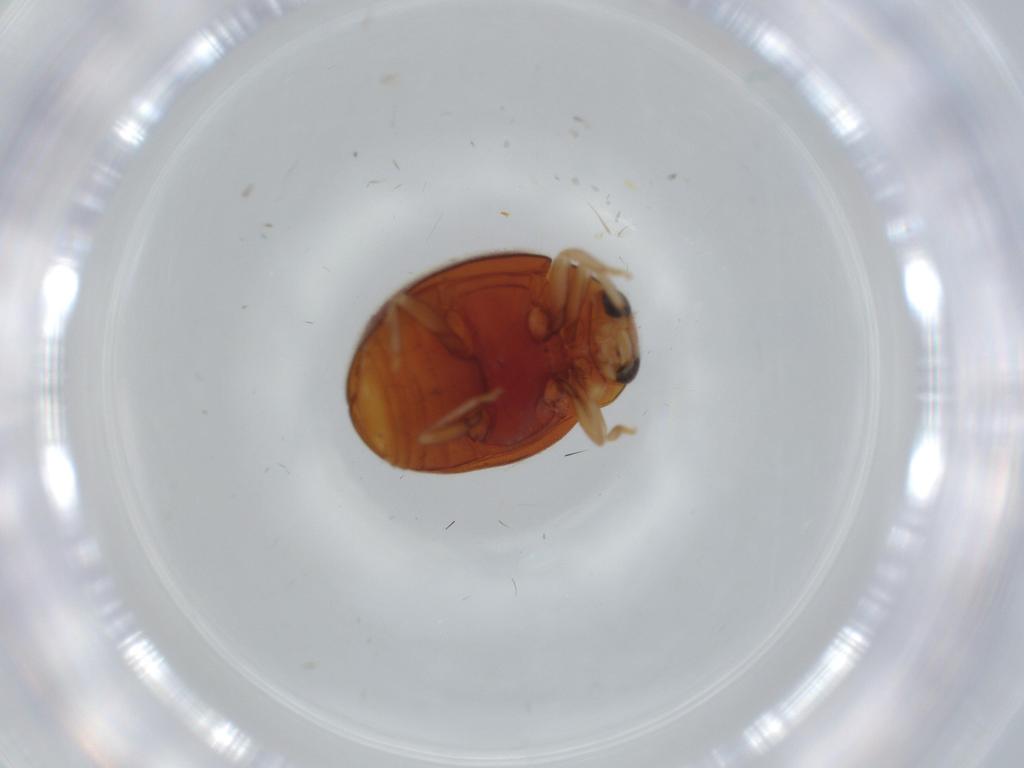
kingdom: Animalia
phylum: Arthropoda
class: Insecta
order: Coleoptera
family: Coccinellidae
